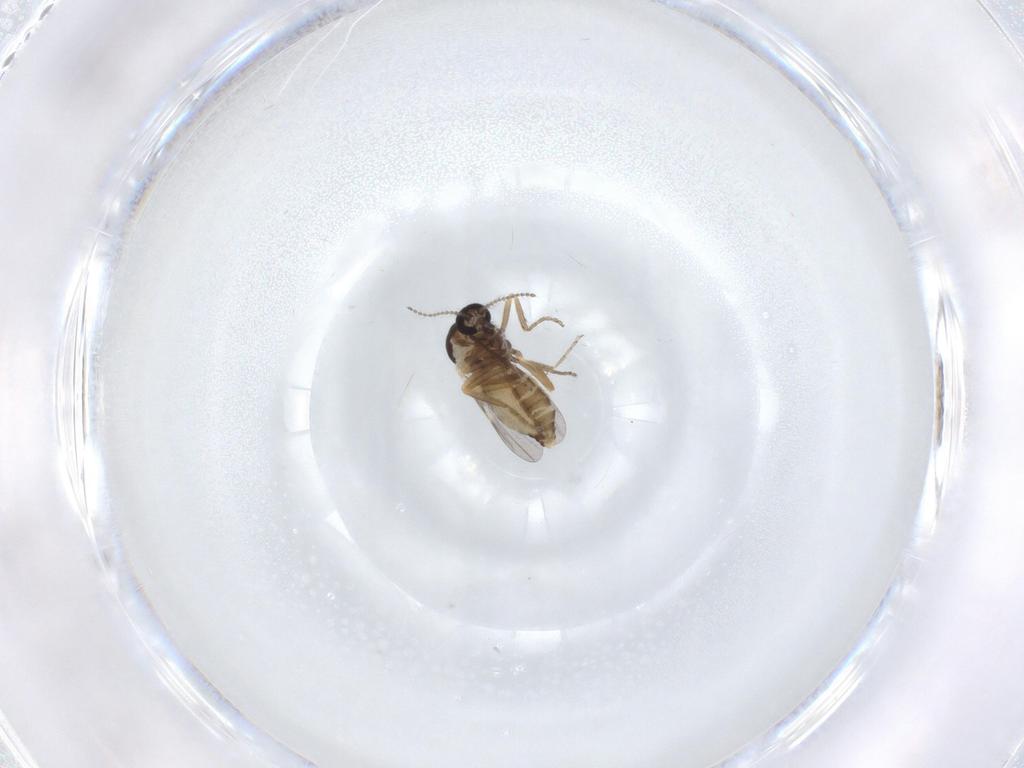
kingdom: Animalia
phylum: Arthropoda
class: Insecta
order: Diptera
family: Ceratopogonidae
